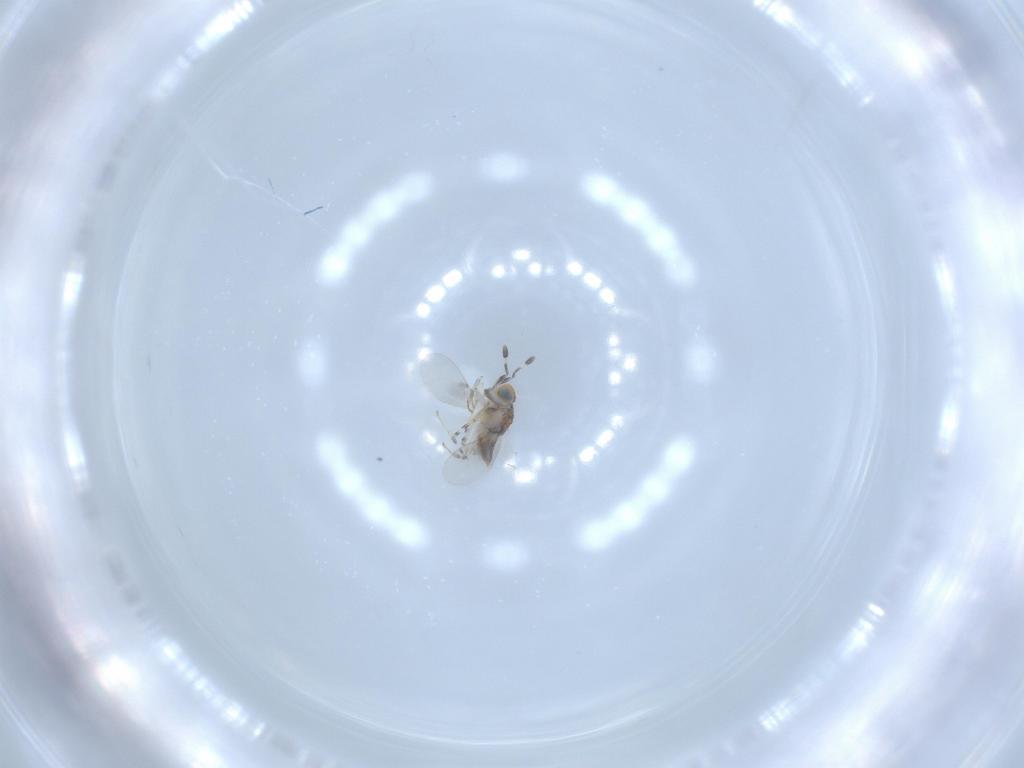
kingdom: Animalia
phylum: Arthropoda
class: Insecta
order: Hymenoptera
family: Encyrtidae
